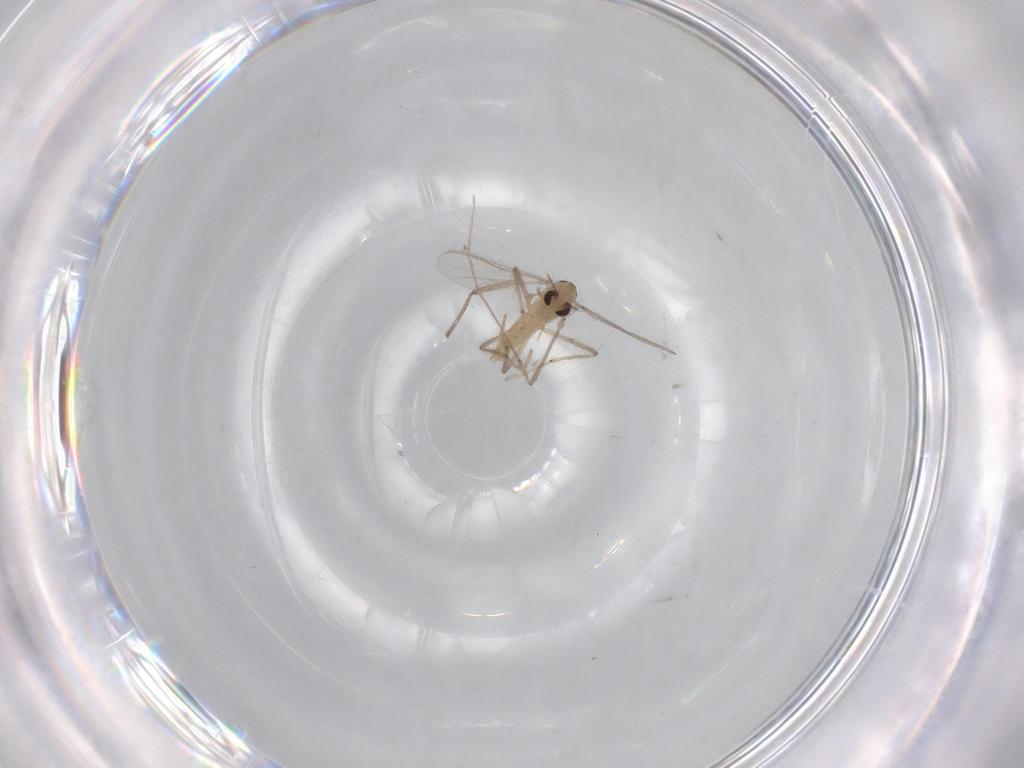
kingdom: Animalia
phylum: Arthropoda
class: Insecta
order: Diptera
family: Chironomidae
